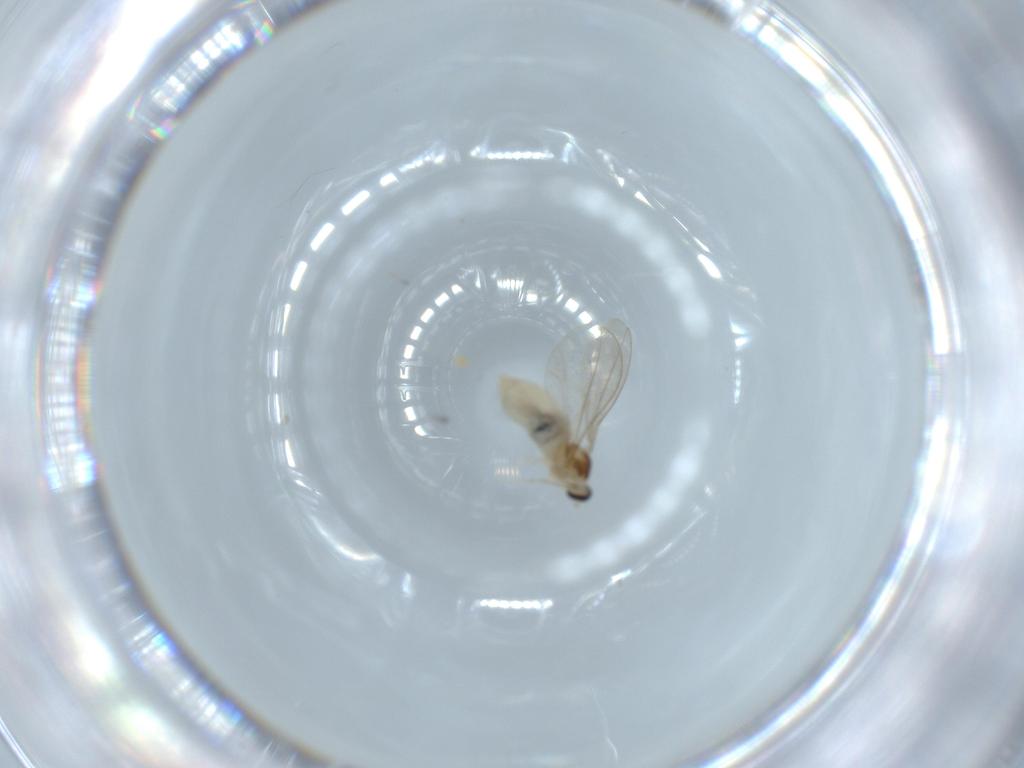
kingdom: Animalia
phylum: Arthropoda
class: Insecta
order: Diptera
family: Cecidomyiidae
